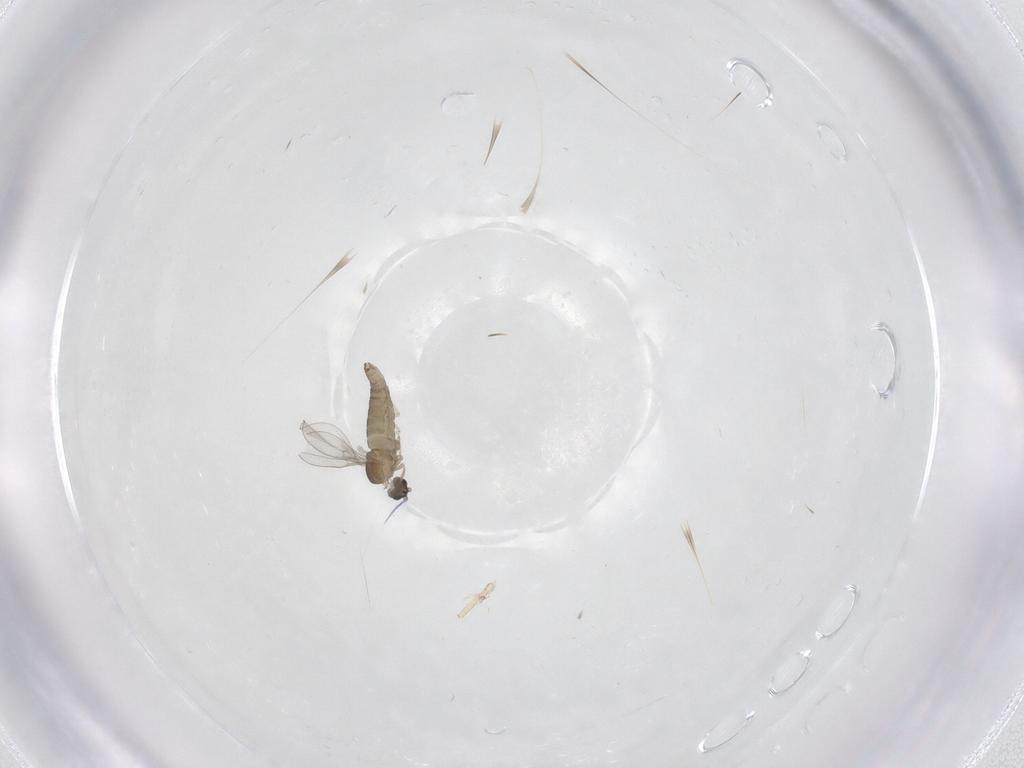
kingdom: Animalia
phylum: Arthropoda
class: Insecta
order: Diptera
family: Cecidomyiidae
